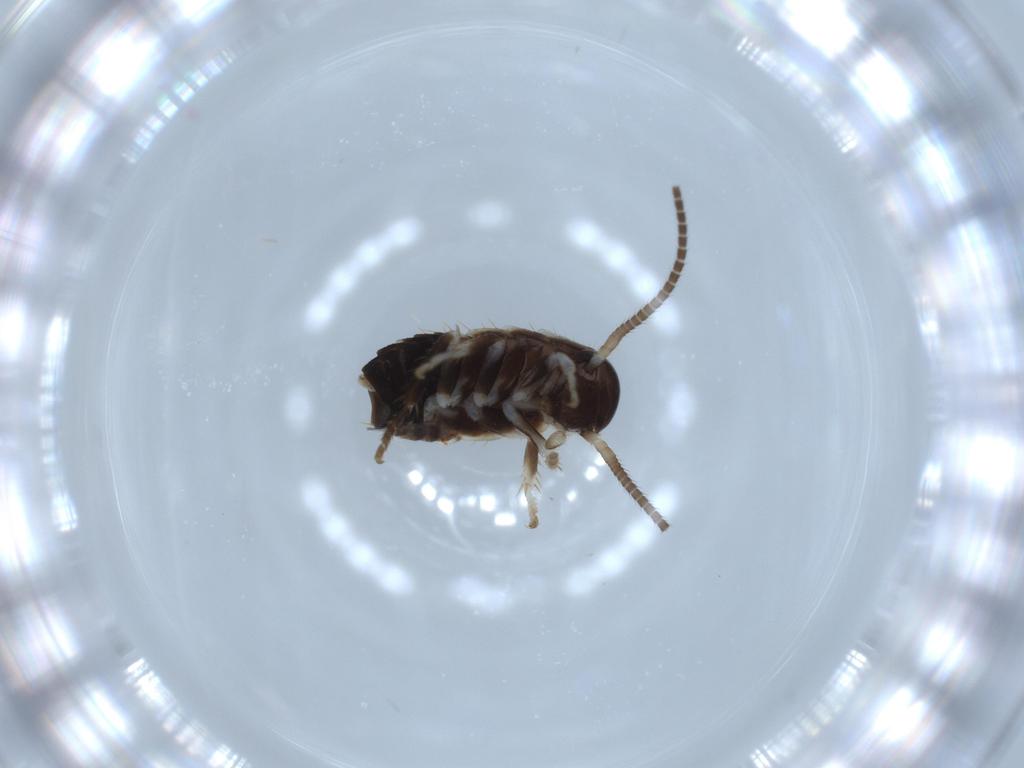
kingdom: Animalia
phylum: Arthropoda
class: Insecta
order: Blattodea
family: Ectobiidae
